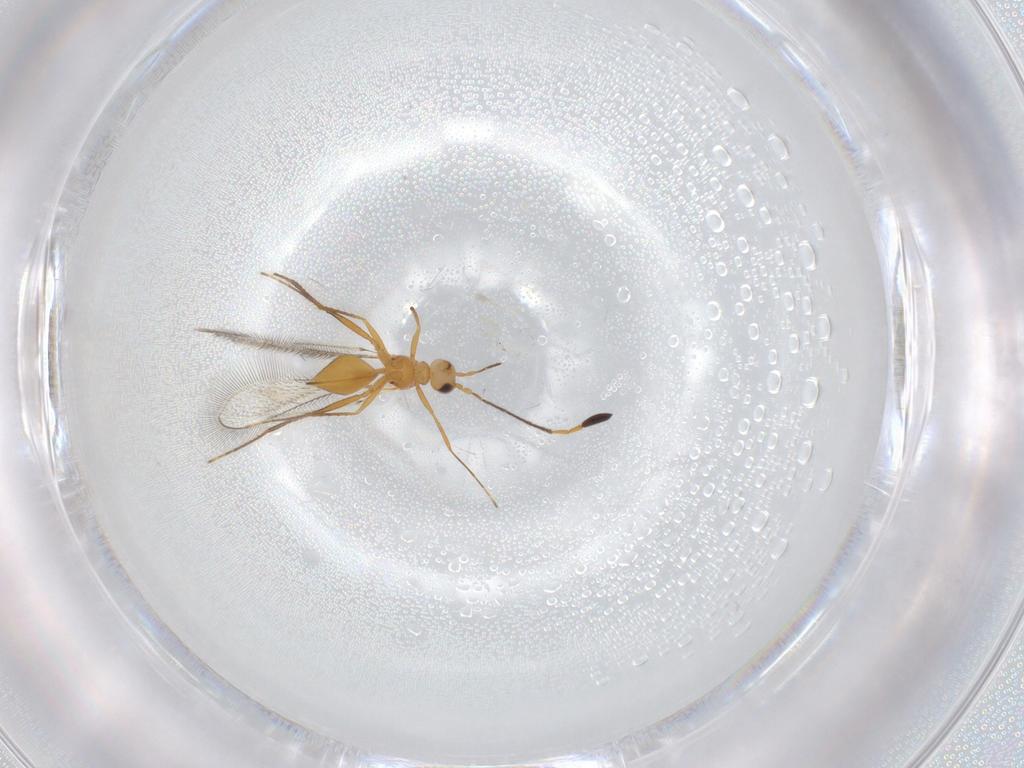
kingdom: Animalia
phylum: Arthropoda
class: Insecta
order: Hymenoptera
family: Mymaridae
